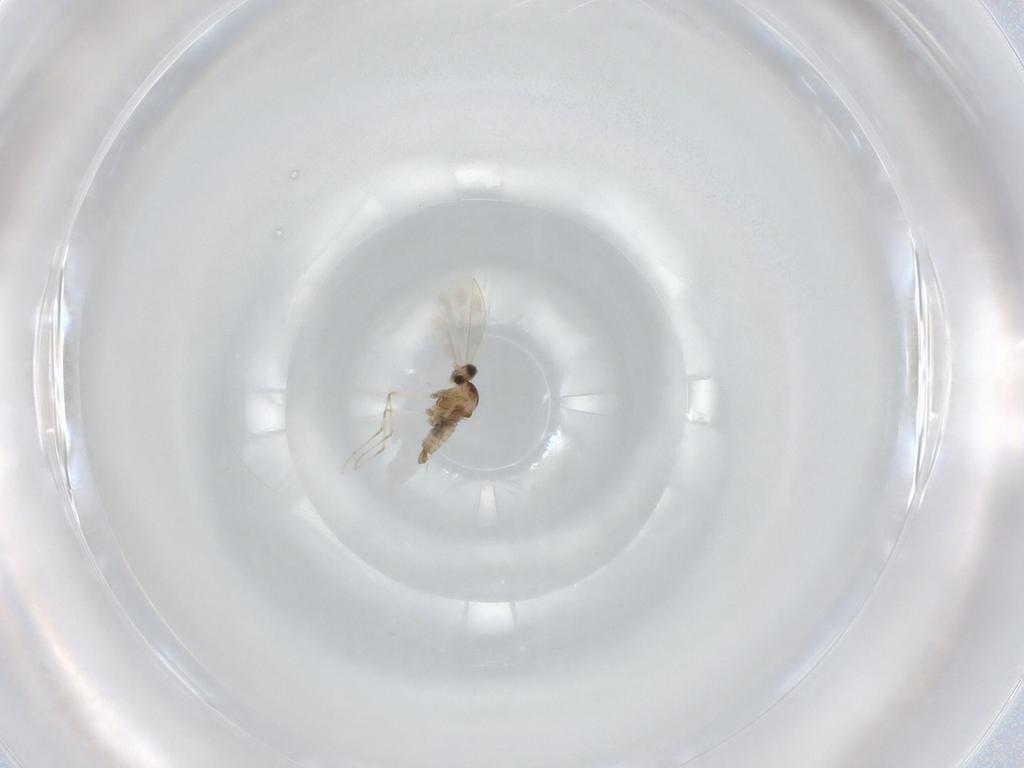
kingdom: Animalia
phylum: Arthropoda
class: Insecta
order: Diptera
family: Cecidomyiidae
